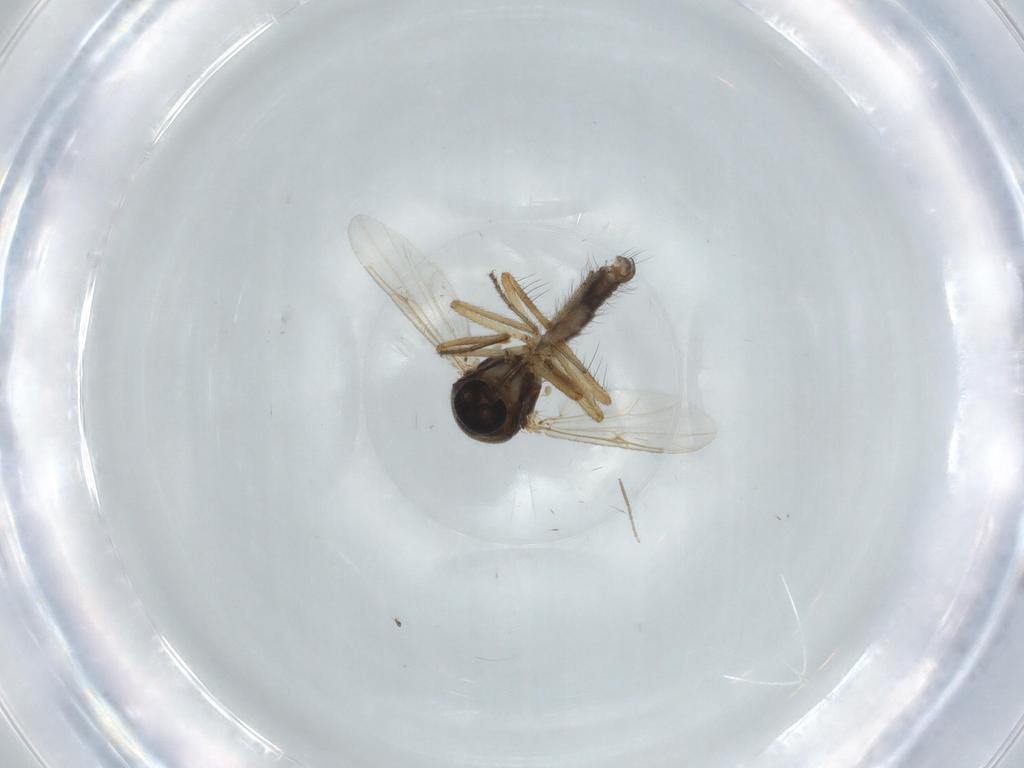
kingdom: Animalia
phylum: Arthropoda
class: Insecta
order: Diptera
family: Ceratopogonidae
